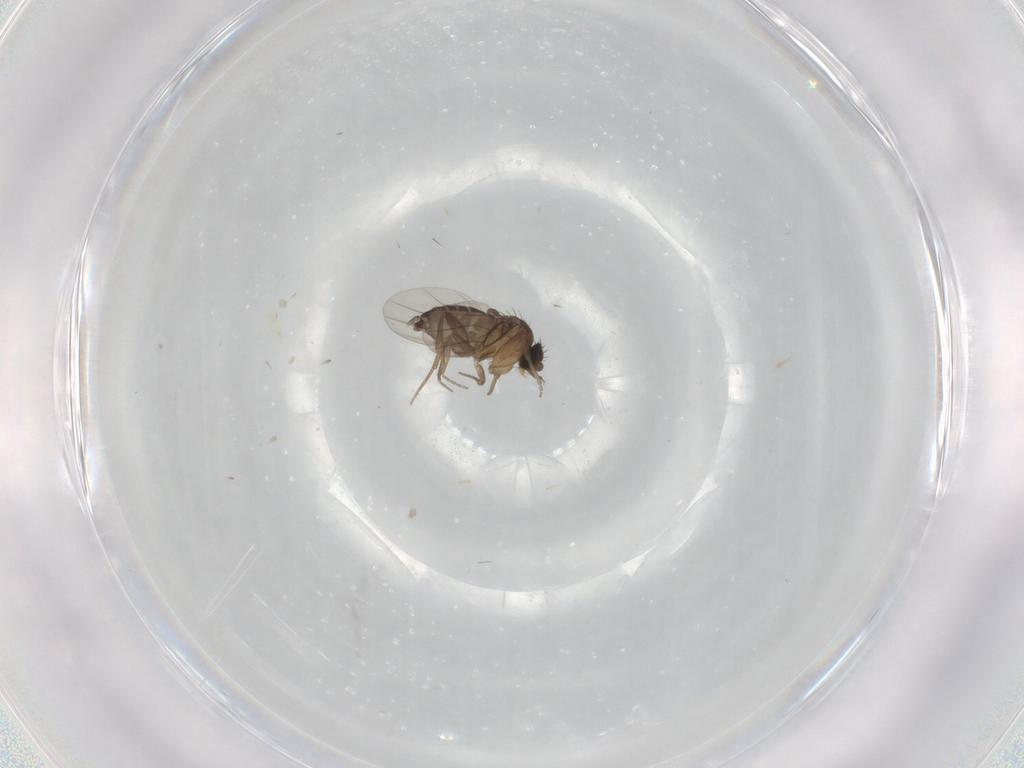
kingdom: Animalia
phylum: Arthropoda
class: Insecta
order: Diptera
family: Phoridae
